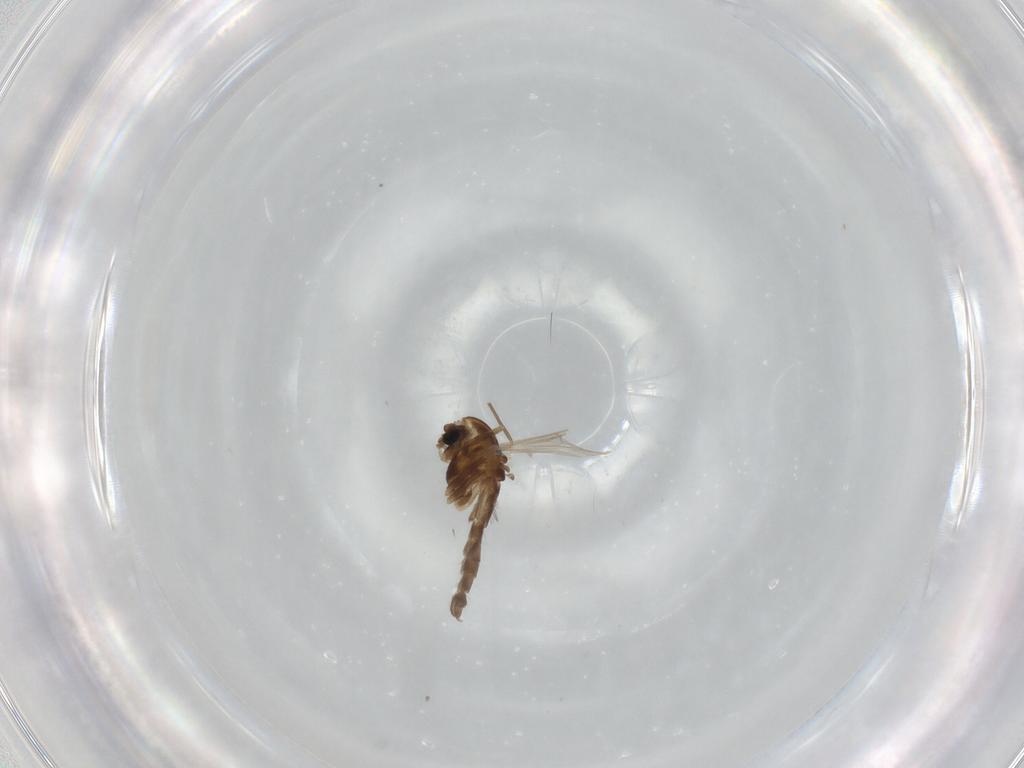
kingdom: Animalia
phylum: Arthropoda
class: Insecta
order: Diptera
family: Chironomidae
